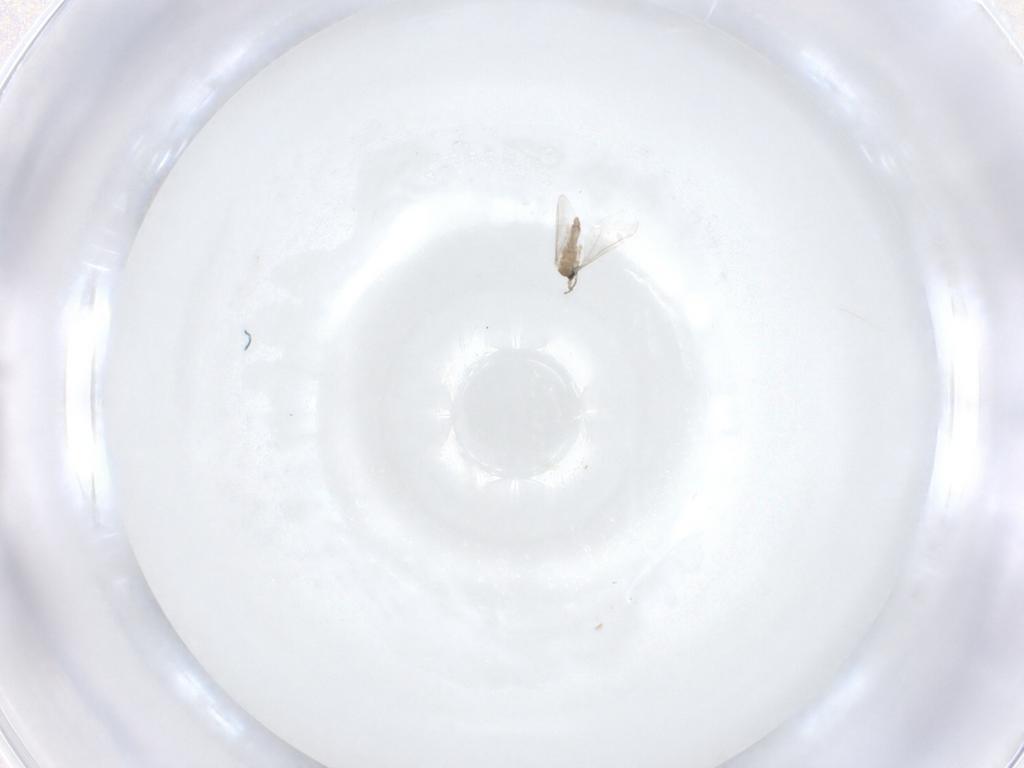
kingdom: Animalia
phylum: Arthropoda
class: Insecta
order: Diptera
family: Psychodidae
